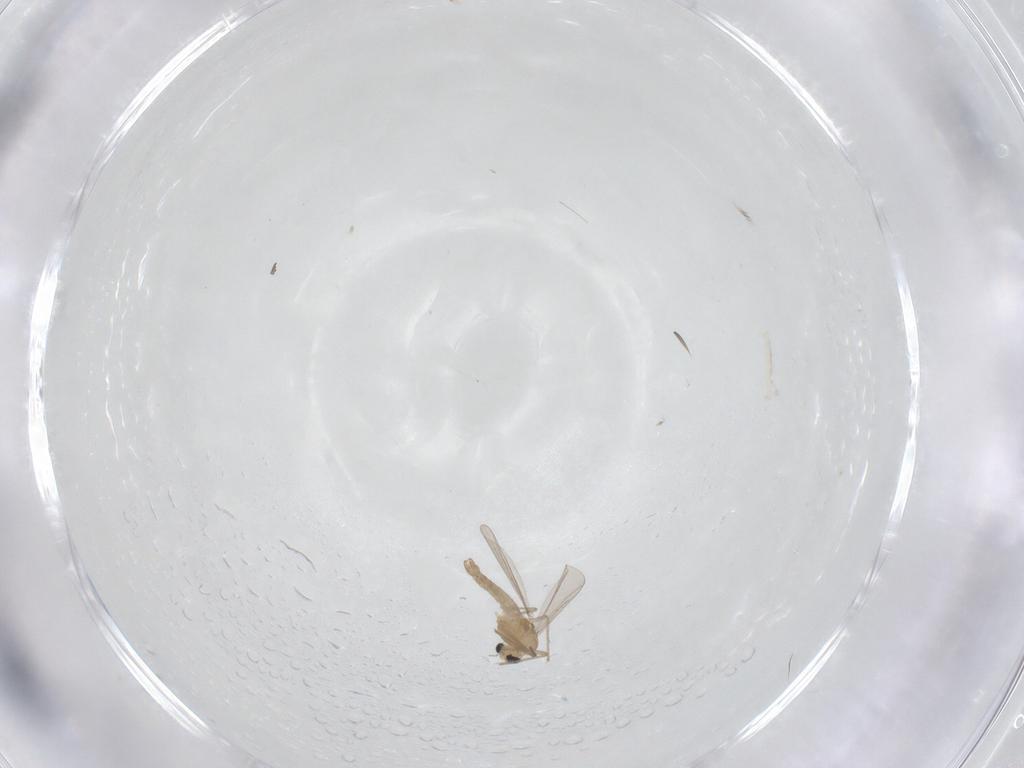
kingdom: Animalia
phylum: Arthropoda
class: Insecta
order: Diptera
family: Chironomidae
